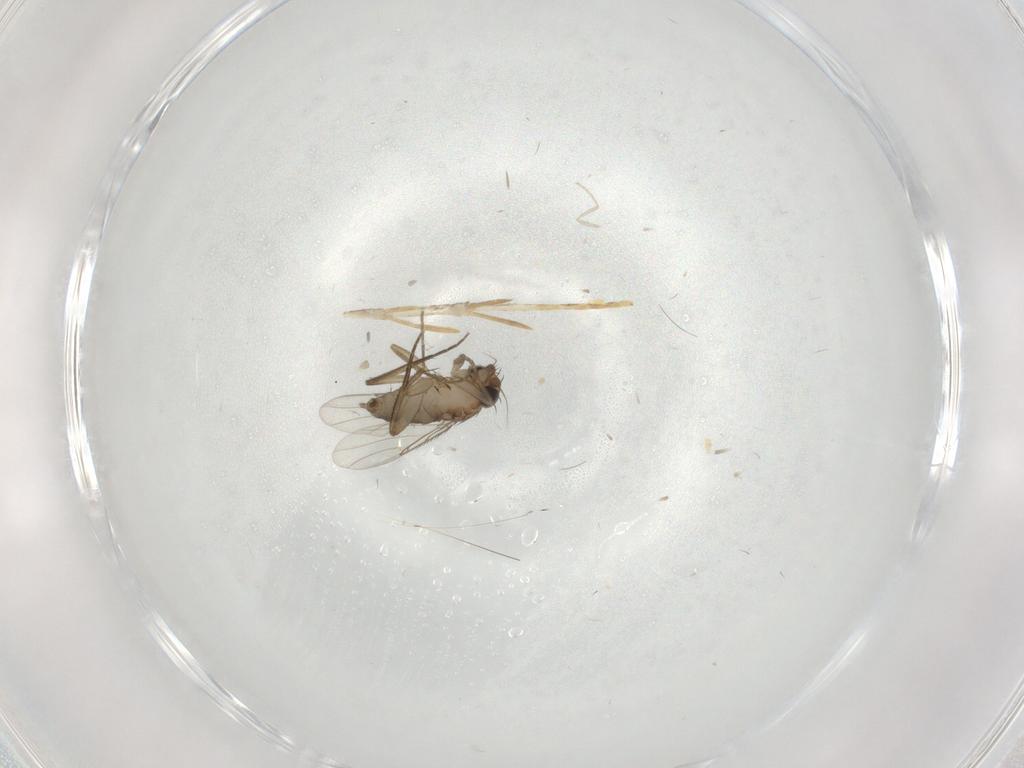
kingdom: Animalia
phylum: Arthropoda
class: Insecta
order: Diptera
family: Phoridae
